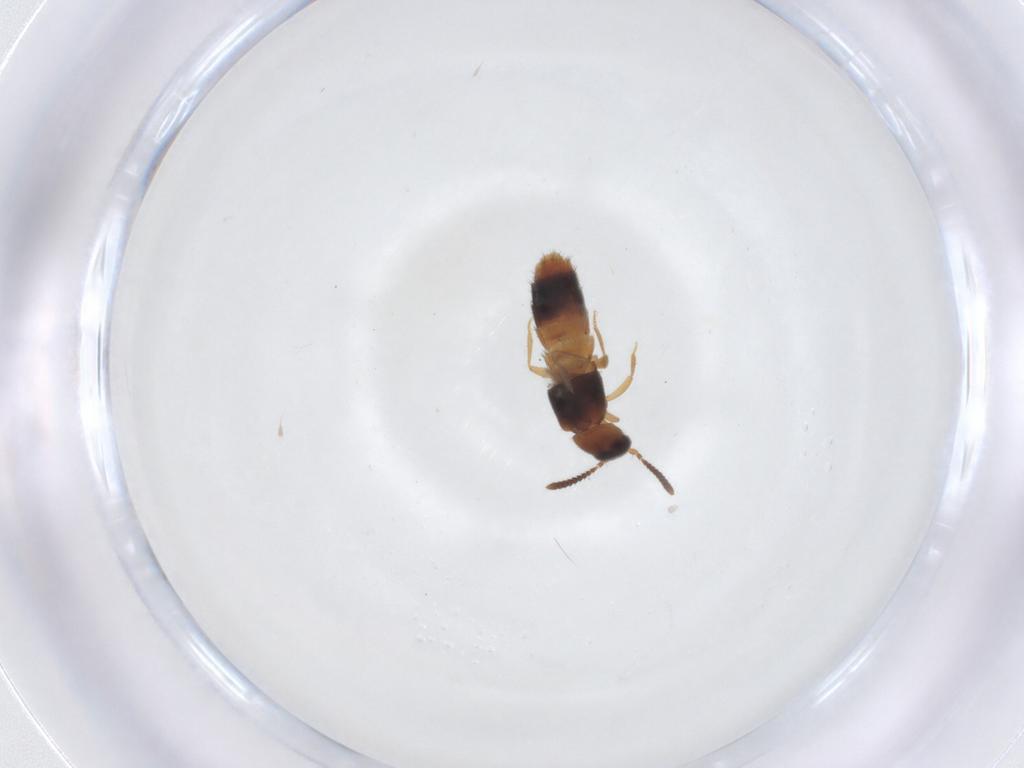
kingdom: Animalia
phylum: Arthropoda
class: Insecta
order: Coleoptera
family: Staphylinidae
